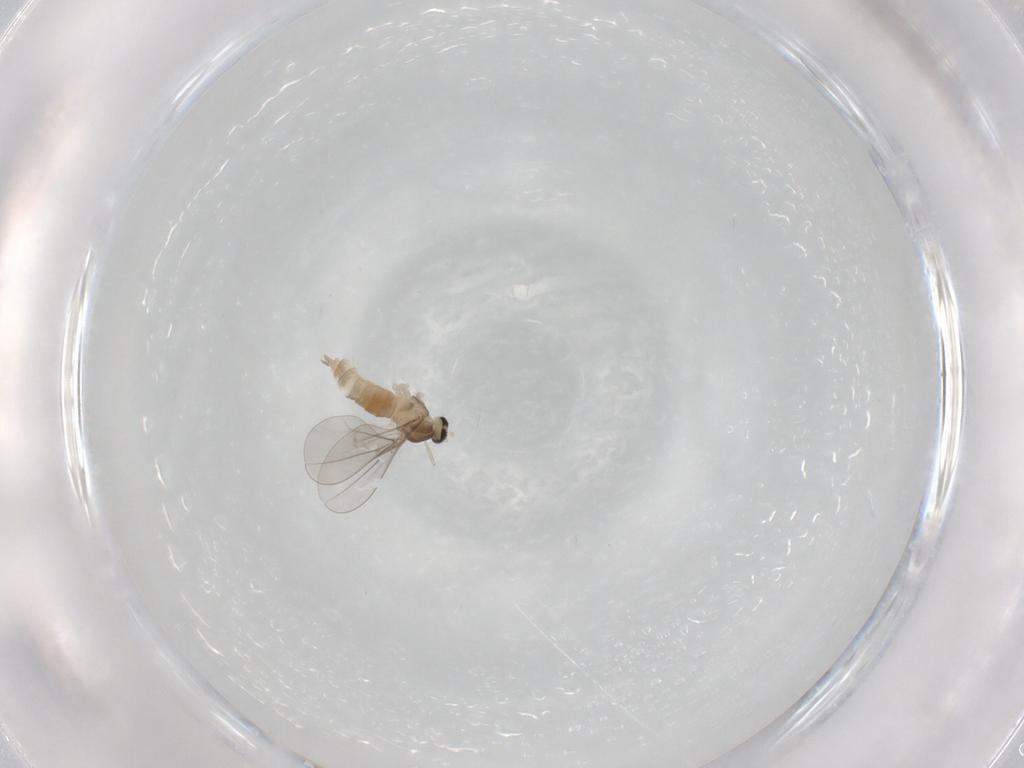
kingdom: Animalia
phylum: Arthropoda
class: Insecta
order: Diptera
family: Cecidomyiidae
